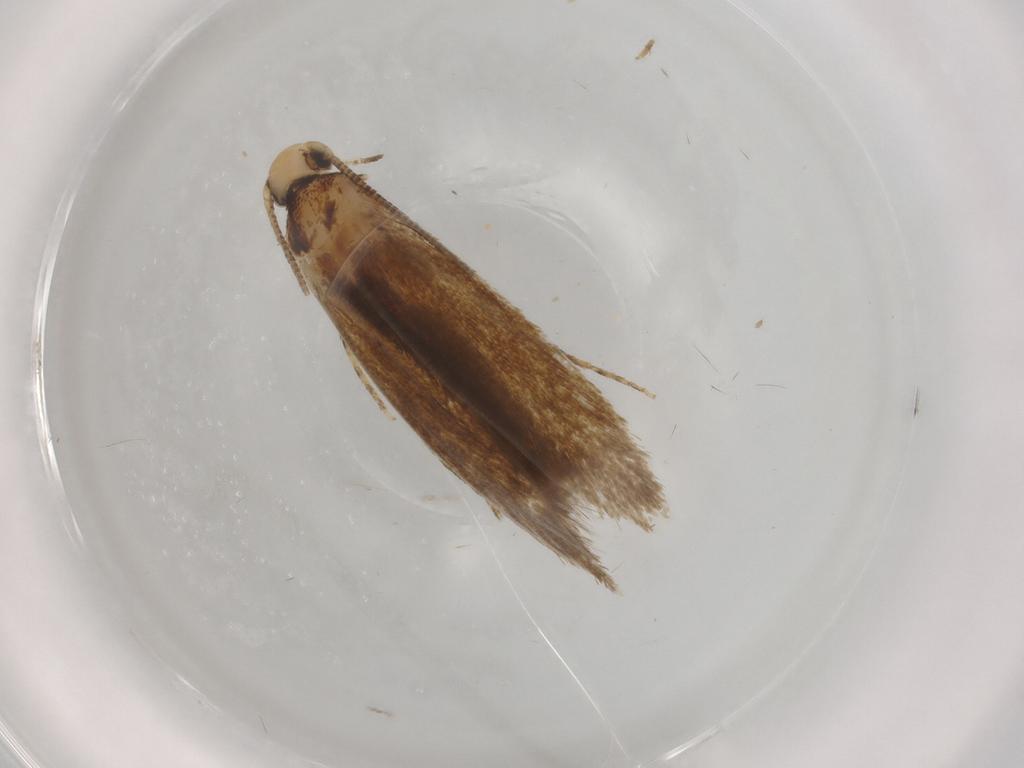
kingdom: Animalia
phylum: Arthropoda
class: Insecta
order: Lepidoptera
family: Tineidae
